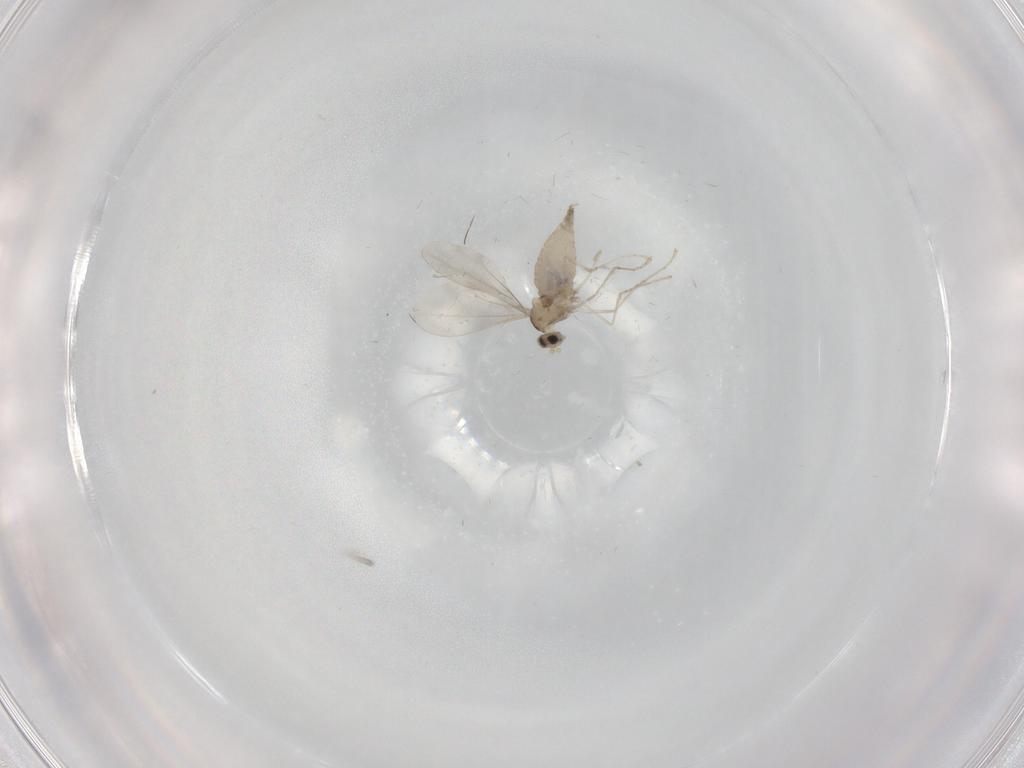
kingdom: Animalia
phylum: Arthropoda
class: Insecta
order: Diptera
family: Cecidomyiidae
